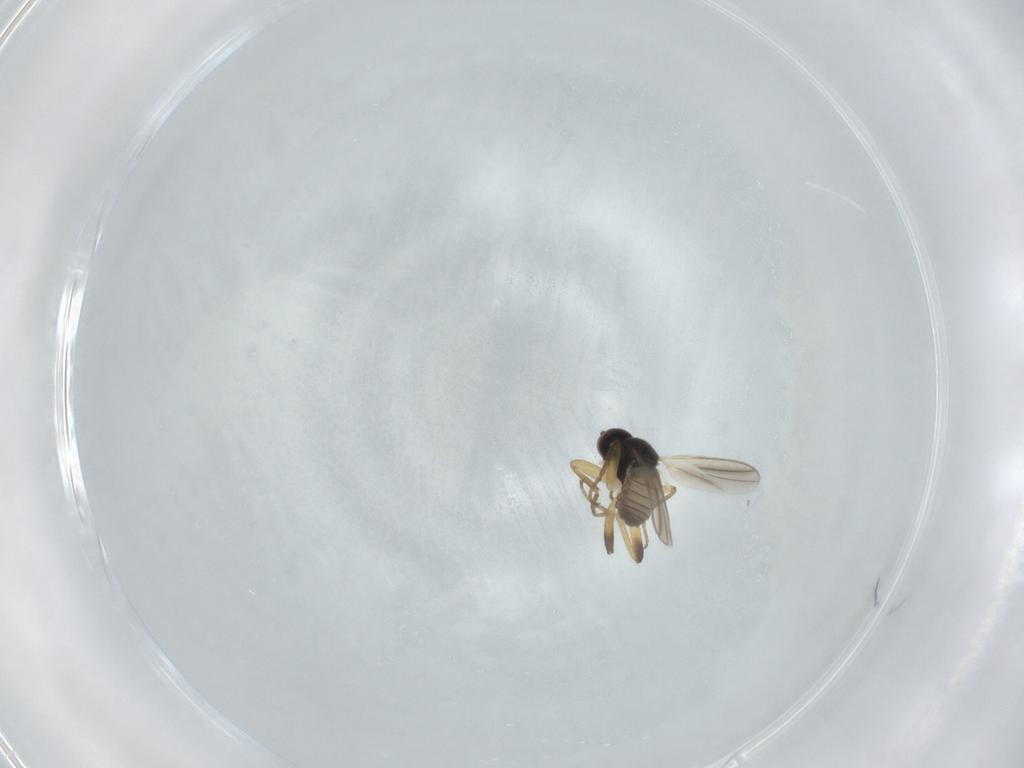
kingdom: Animalia
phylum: Arthropoda
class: Insecta
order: Diptera
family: Hybotidae
